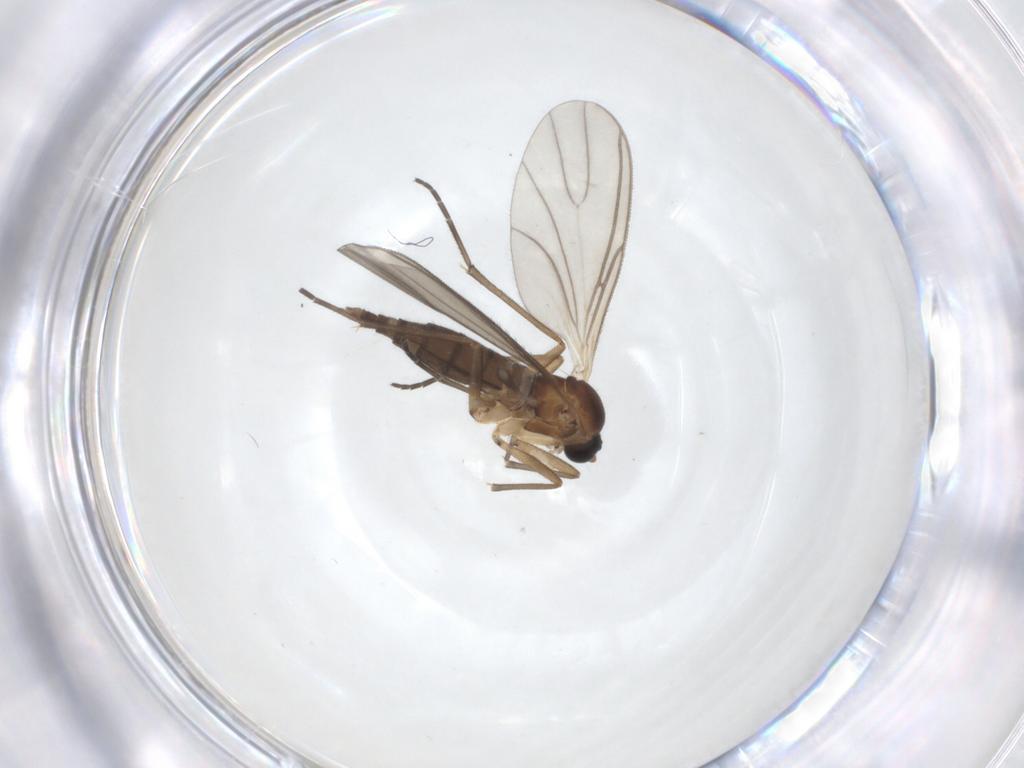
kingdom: Animalia
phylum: Arthropoda
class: Insecta
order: Diptera
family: Sciaridae
